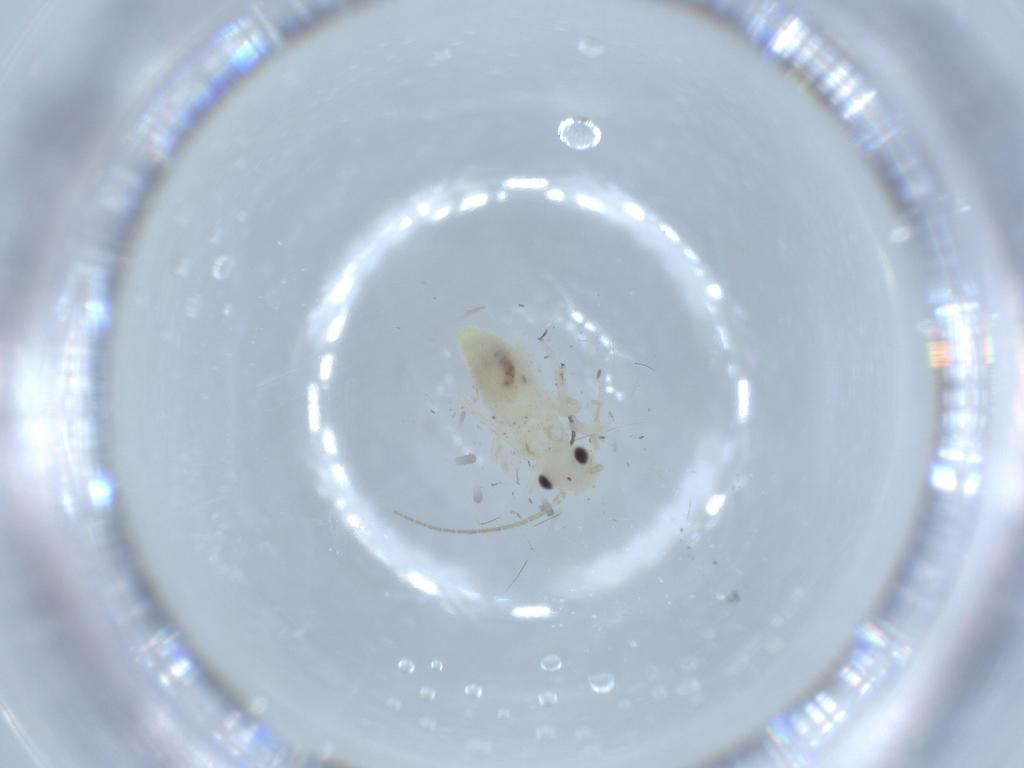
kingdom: Animalia
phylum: Arthropoda
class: Insecta
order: Psocodea
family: Caeciliusidae
